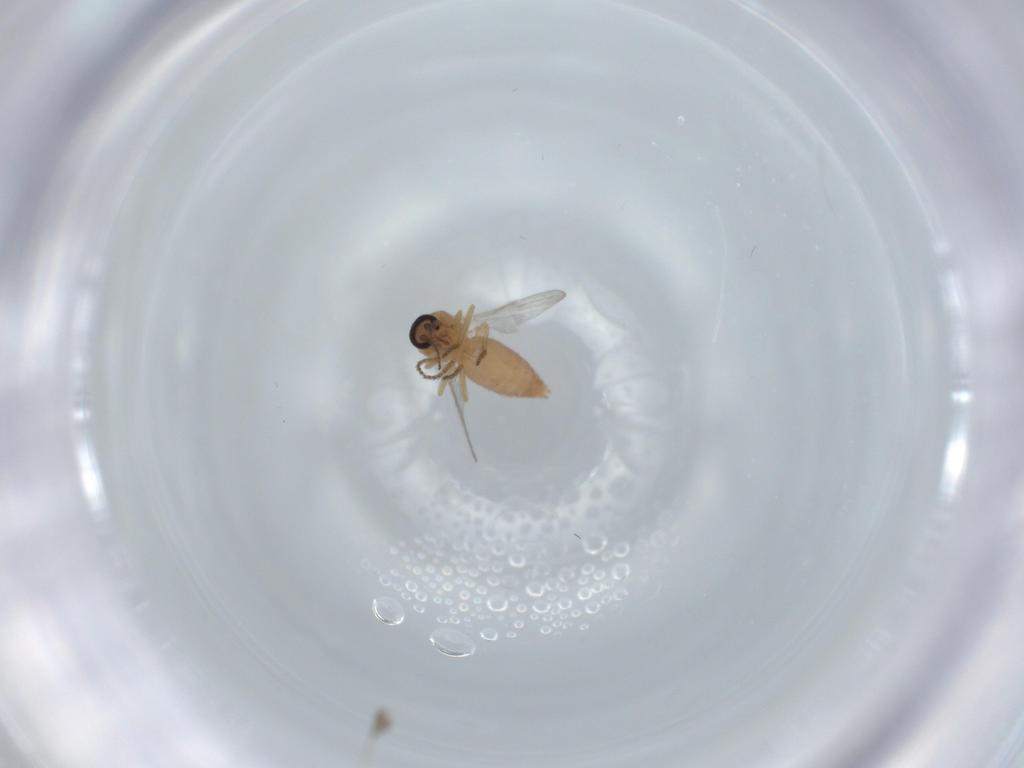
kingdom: Animalia
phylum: Arthropoda
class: Insecta
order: Diptera
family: Ceratopogonidae
